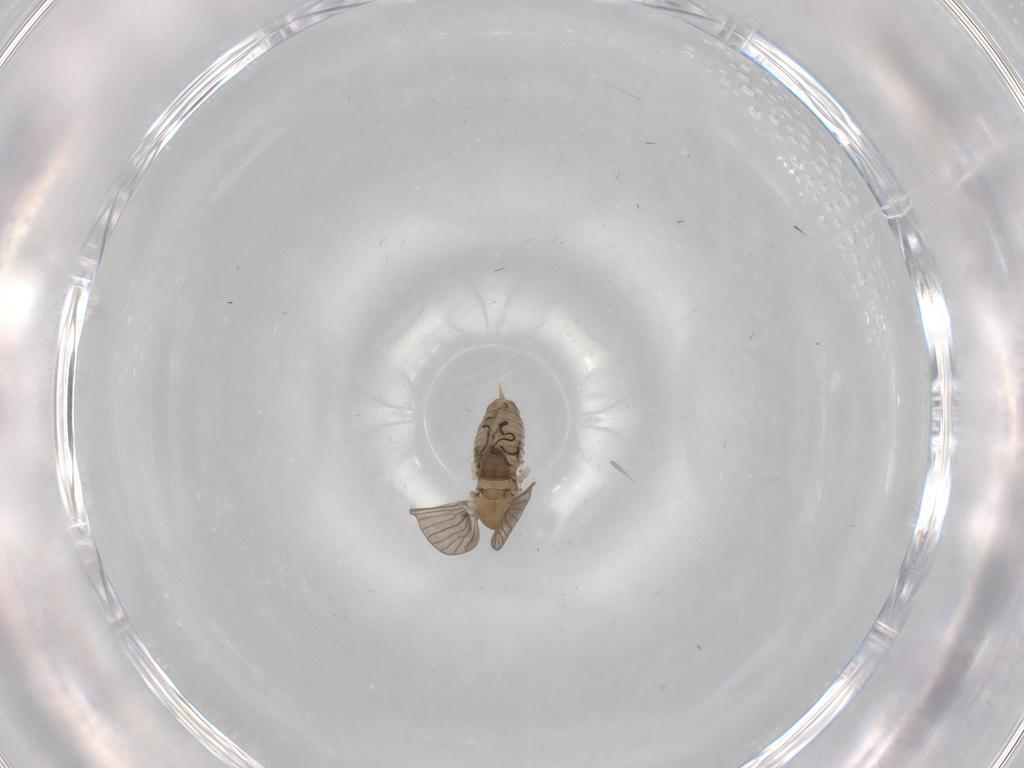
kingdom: Animalia
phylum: Arthropoda
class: Insecta
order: Diptera
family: Psychodidae
